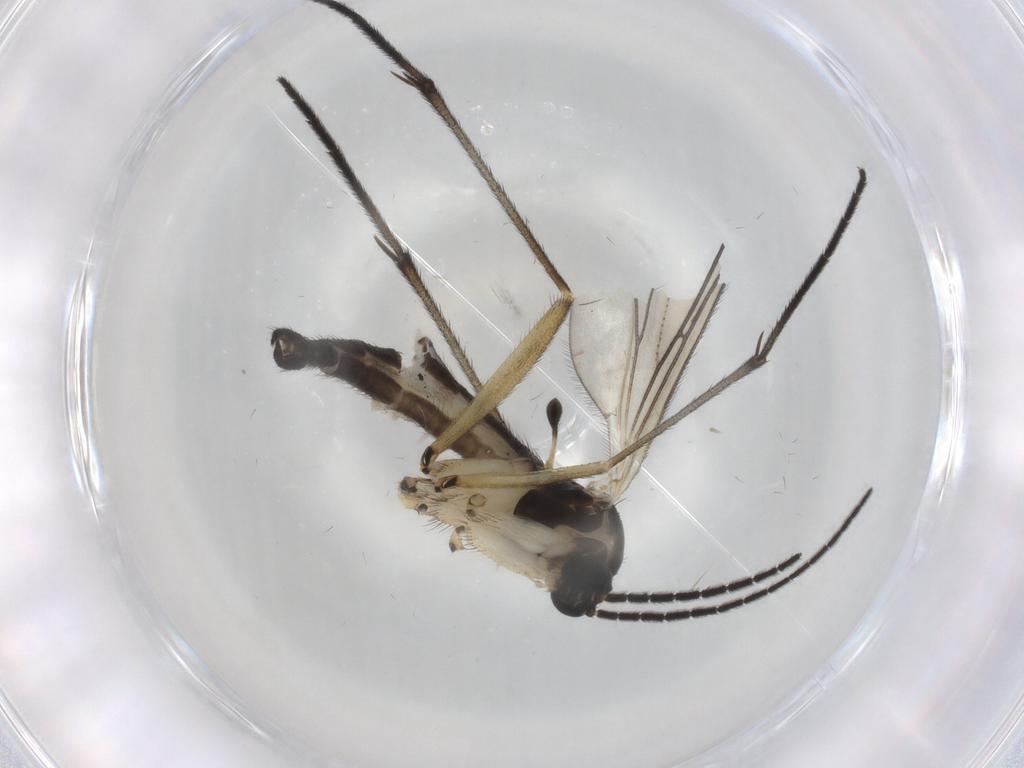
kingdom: Animalia
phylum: Arthropoda
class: Insecta
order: Diptera
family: Sciaridae
